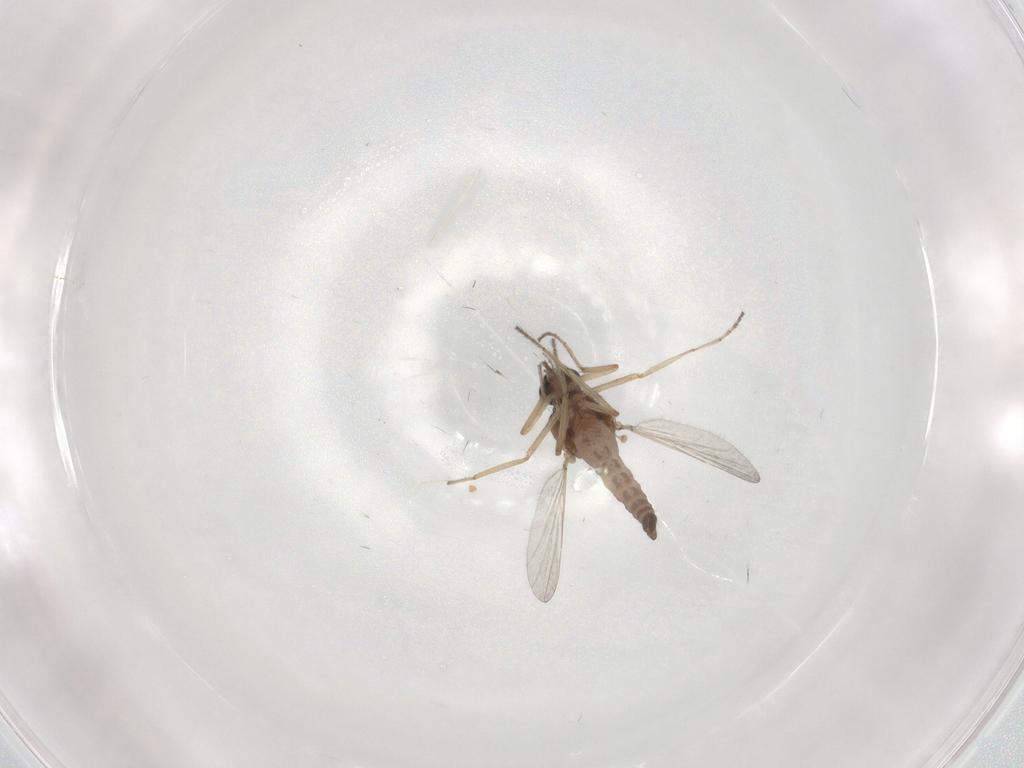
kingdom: Animalia
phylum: Arthropoda
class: Insecta
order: Diptera
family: Ceratopogonidae
